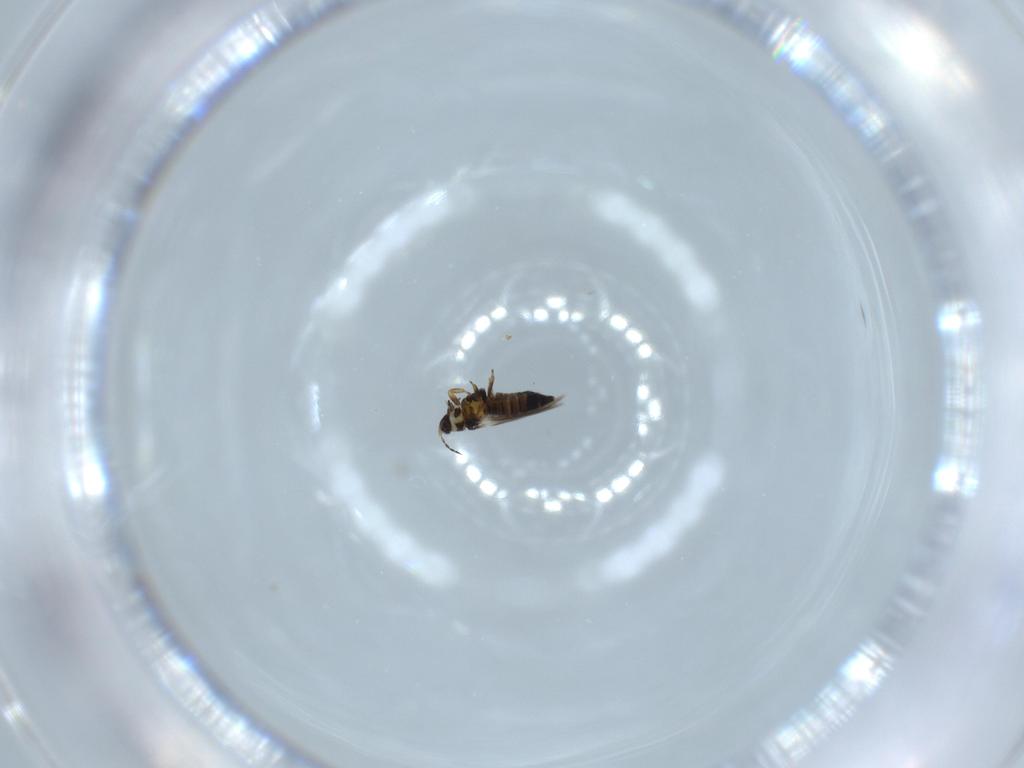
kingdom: Animalia
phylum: Arthropoda
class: Insecta
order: Thysanoptera
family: Thripidae
